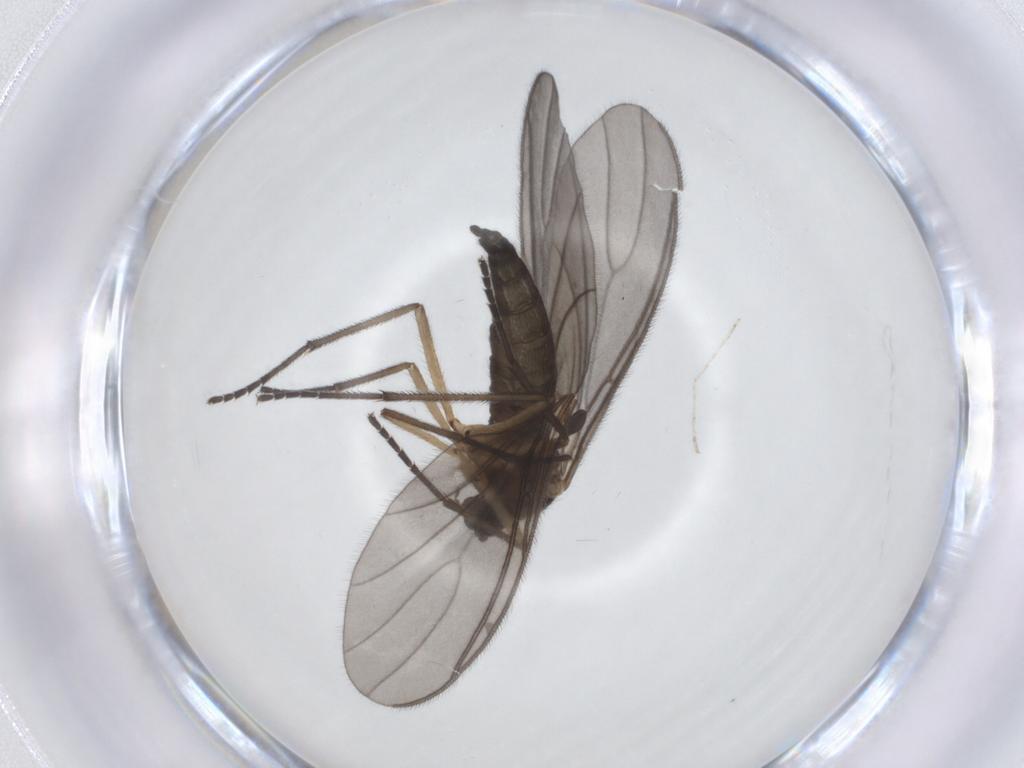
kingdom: Animalia
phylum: Arthropoda
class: Insecta
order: Diptera
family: Sciaridae
